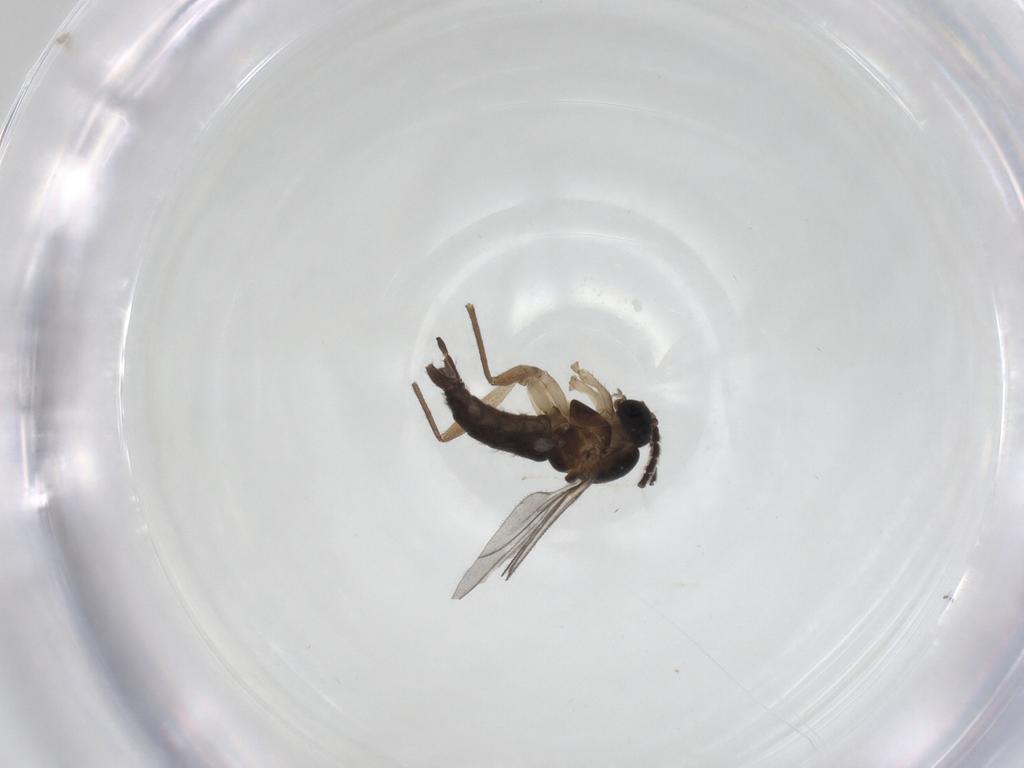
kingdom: Animalia
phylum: Arthropoda
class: Insecta
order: Diptera
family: Sciaridae
